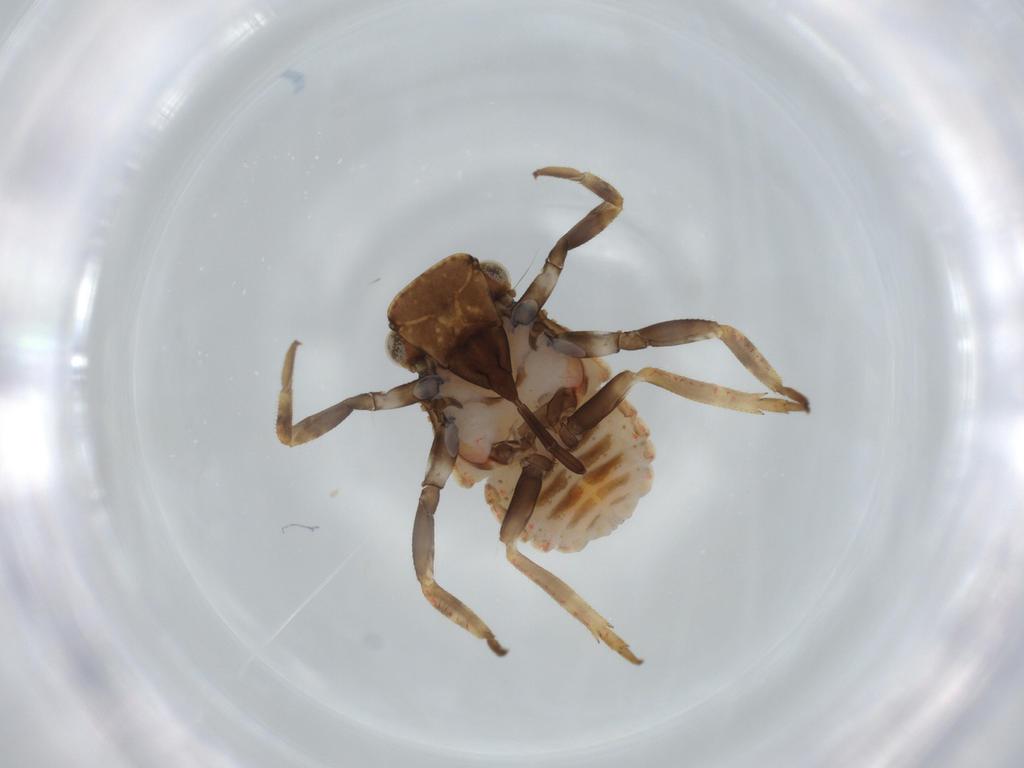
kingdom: Animalia
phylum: Arthropoda
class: Insecta
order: Hemiptera
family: Fulgoroidea_incertae_sedis
